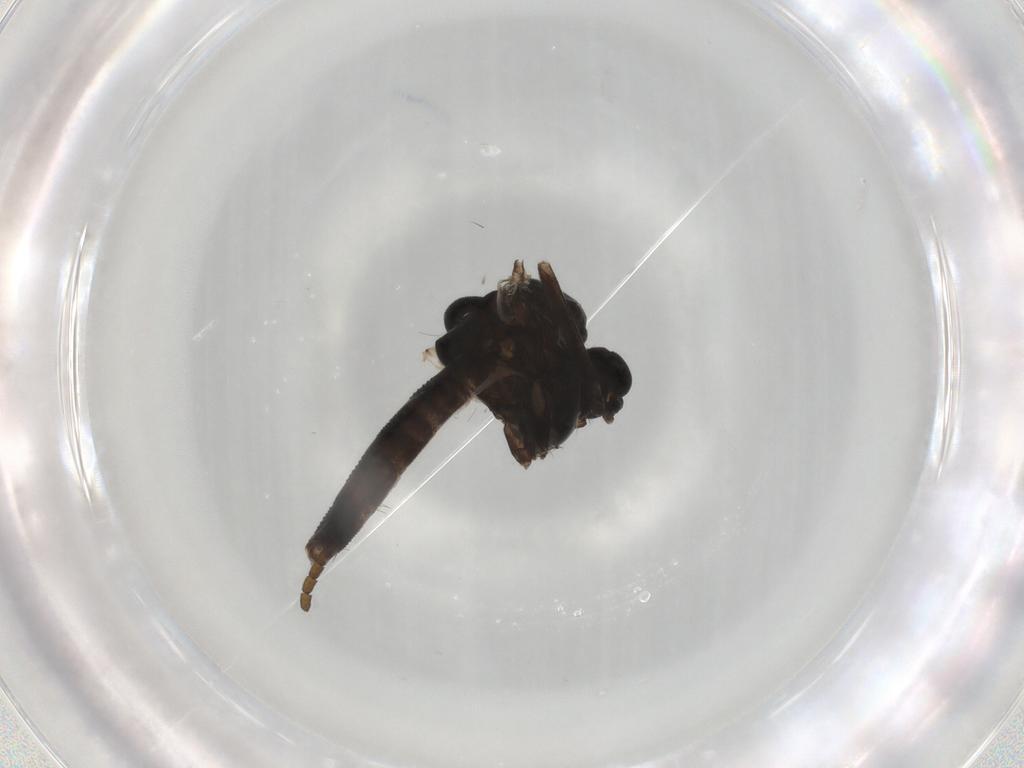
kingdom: Animalia
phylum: Arthropoda
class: Insecta
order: Diptera
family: Chironomidae
